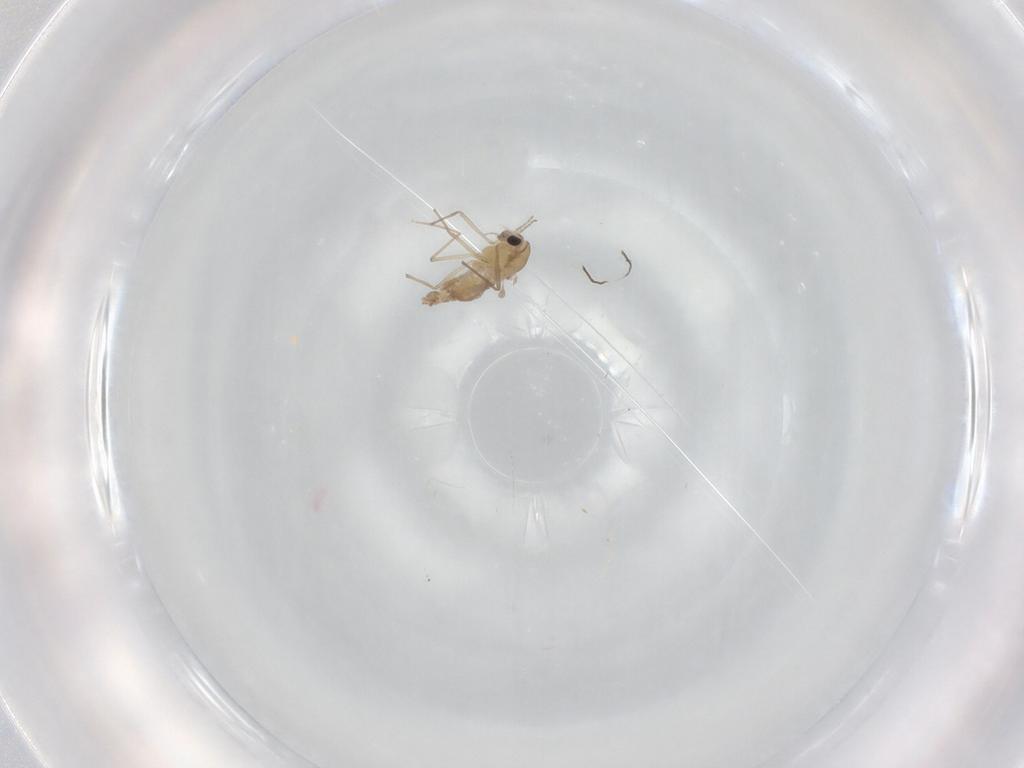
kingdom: Animalia
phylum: Arthropoda
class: Insecta
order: Diptera
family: Chironomidae
